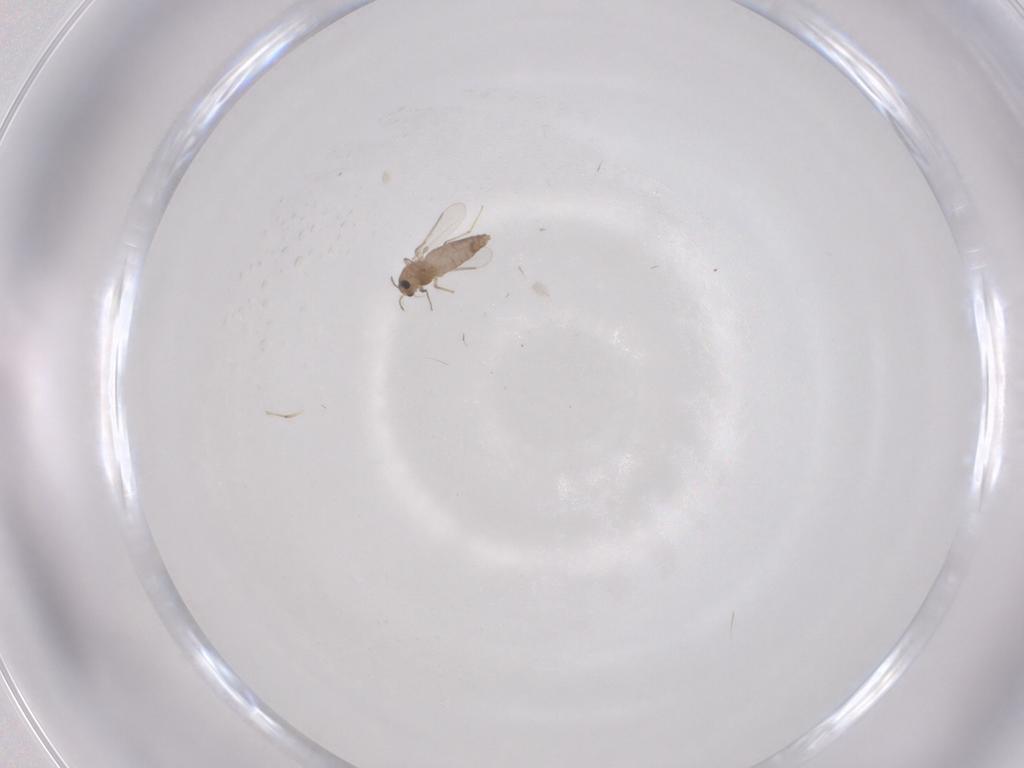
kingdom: Animalia
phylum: Arthropoda
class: Insecta
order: Diptera
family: Chironomidae
